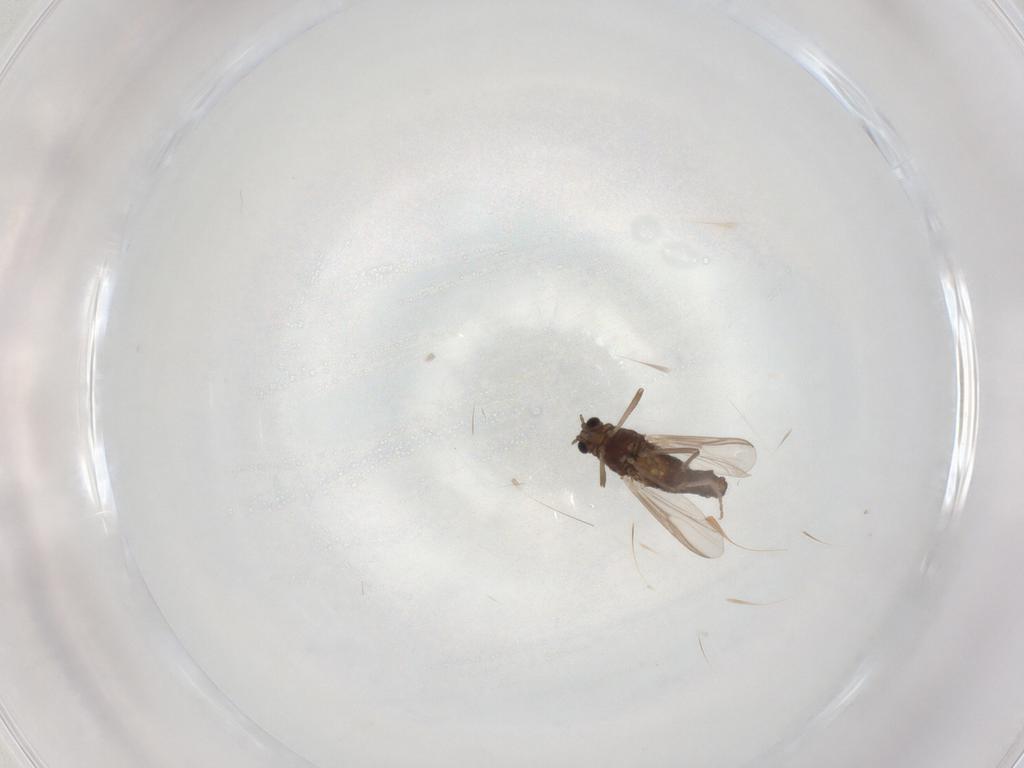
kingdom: Animalia
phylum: Arthropoda
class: Insecta
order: Diptera
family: Chironomidae
